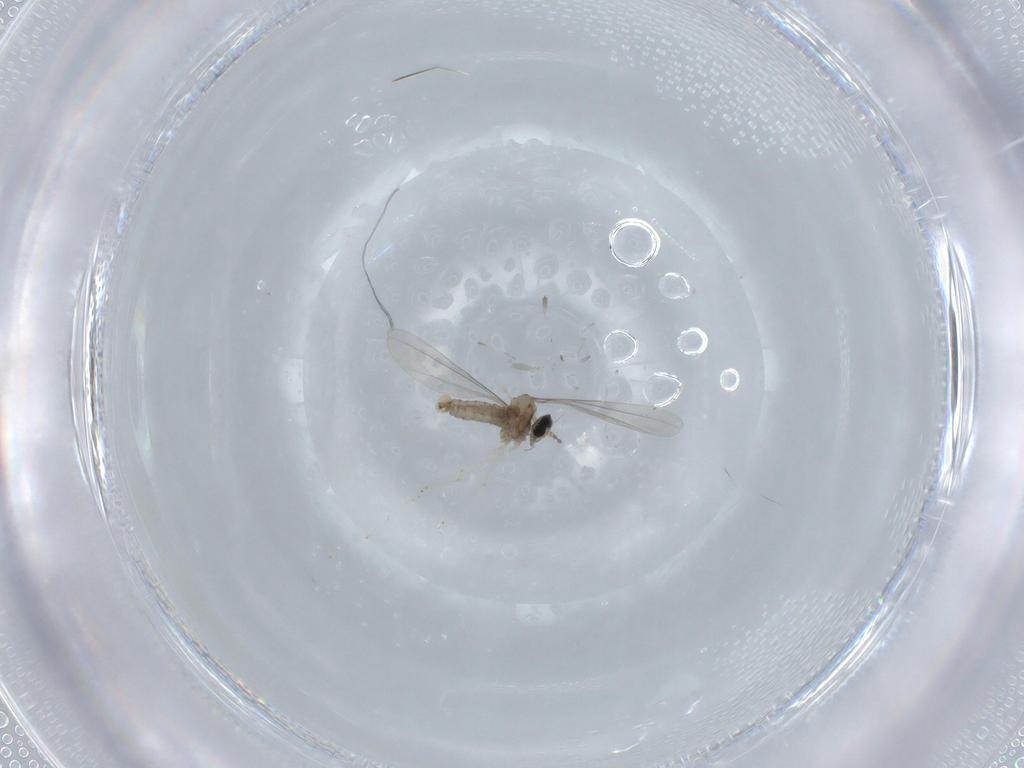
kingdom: Animalia
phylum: Arthropoda
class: Insecta
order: Diptera
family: Cecidomyiidae
